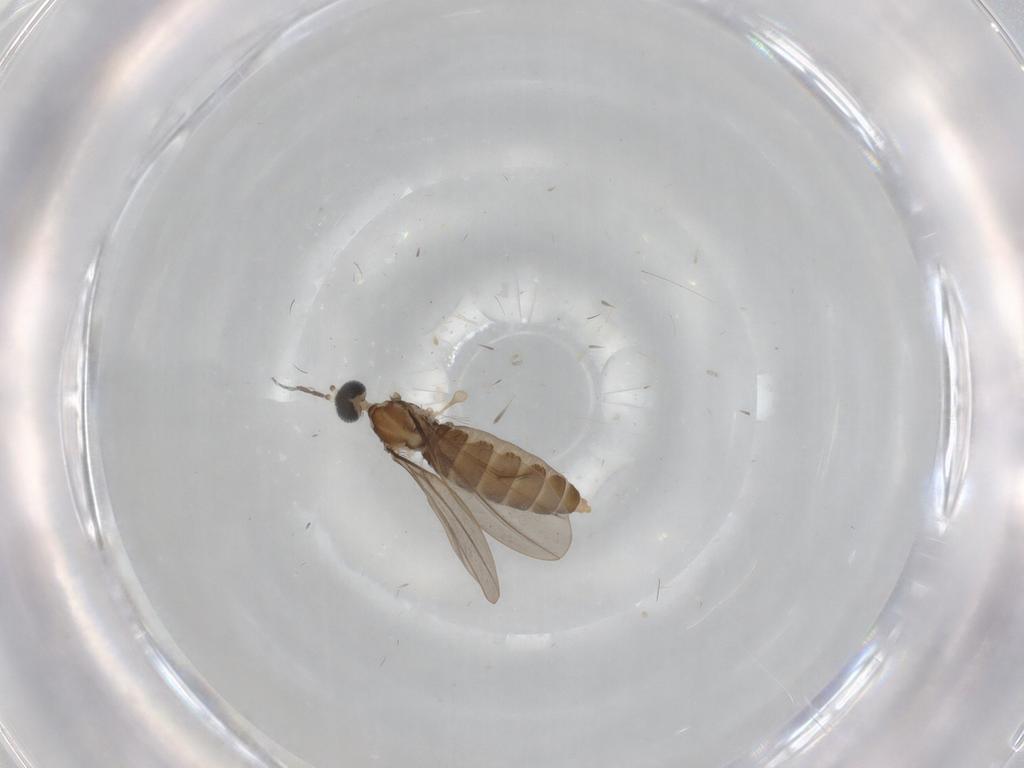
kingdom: Animalia
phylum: Arthropoda
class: Insecta
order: Diptera
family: Cecidomyiidae
